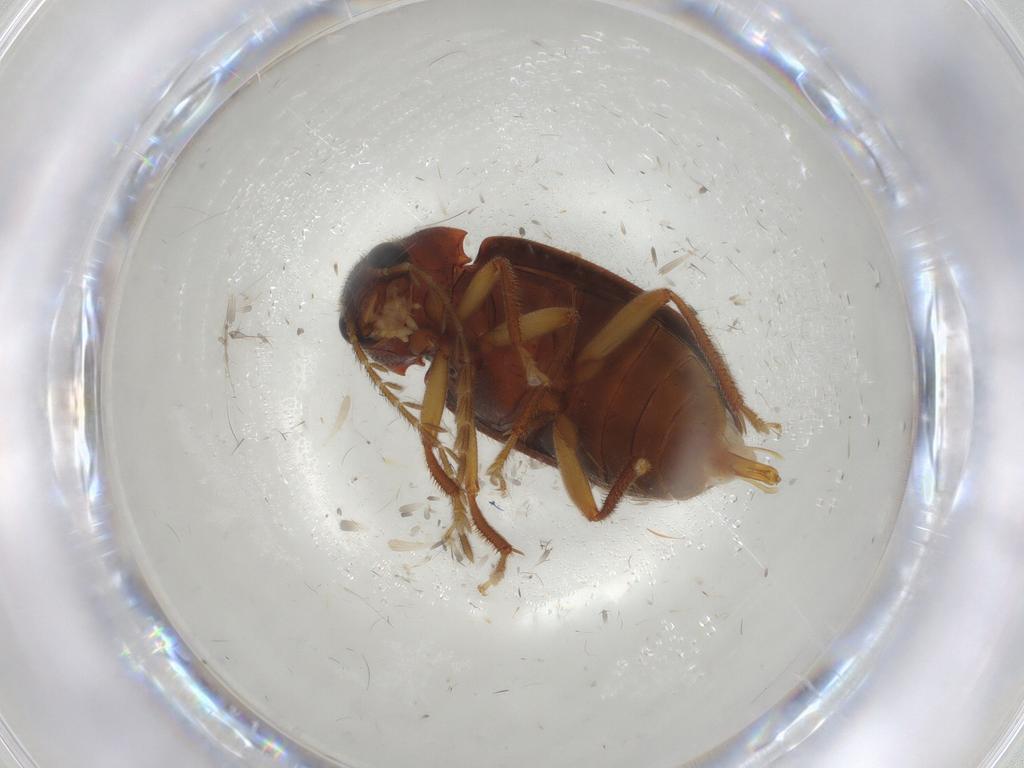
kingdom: Animalia
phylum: Arthropoda
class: Insecta
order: Coleoptera
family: Ptilodactylidae
